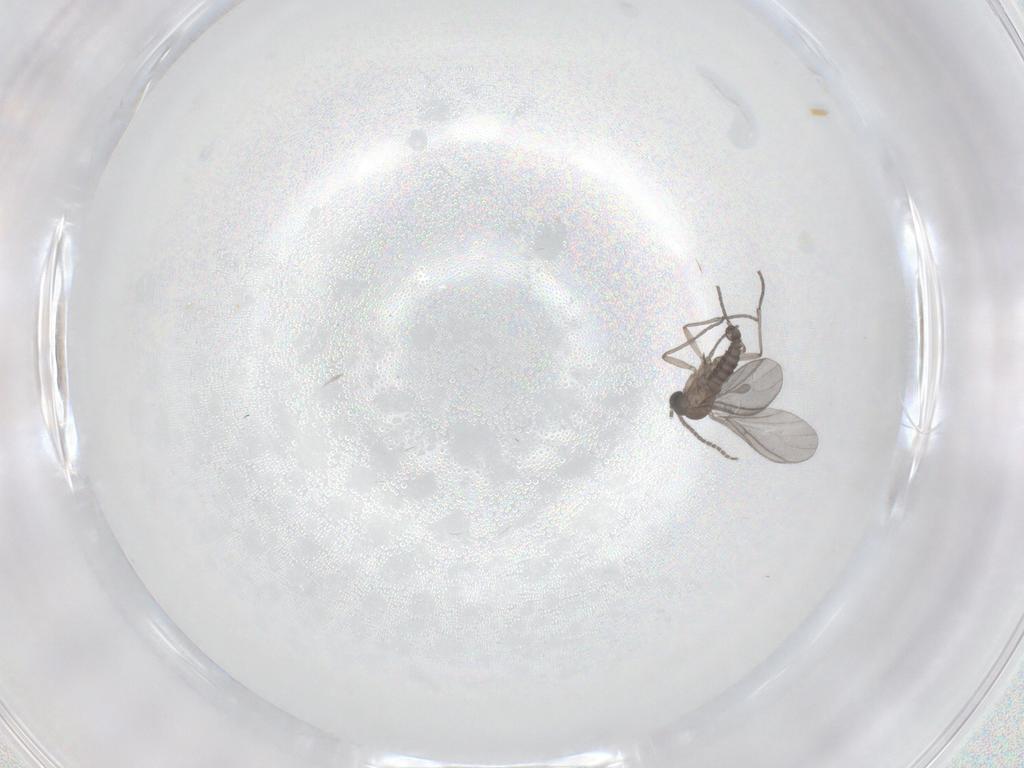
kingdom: Animalia
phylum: Arthropoda
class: Insecta
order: Diptera
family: Sciaridae
